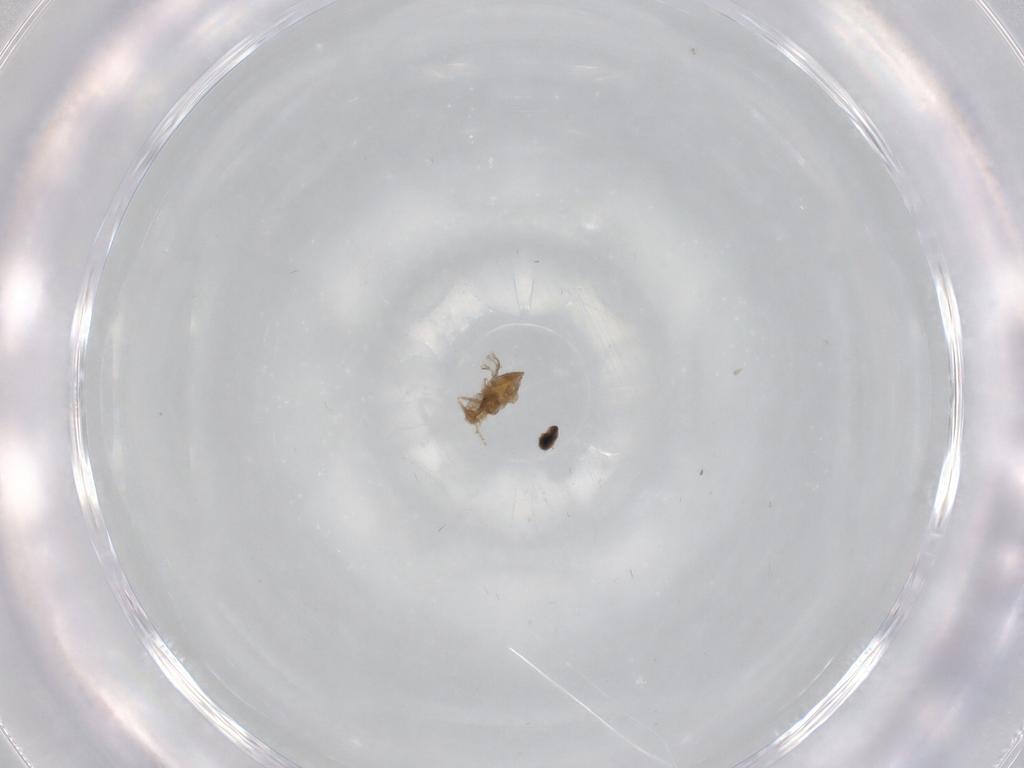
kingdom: Animalia
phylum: Arthropoda
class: Insecta
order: Diptera
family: Cecidomyiidae
